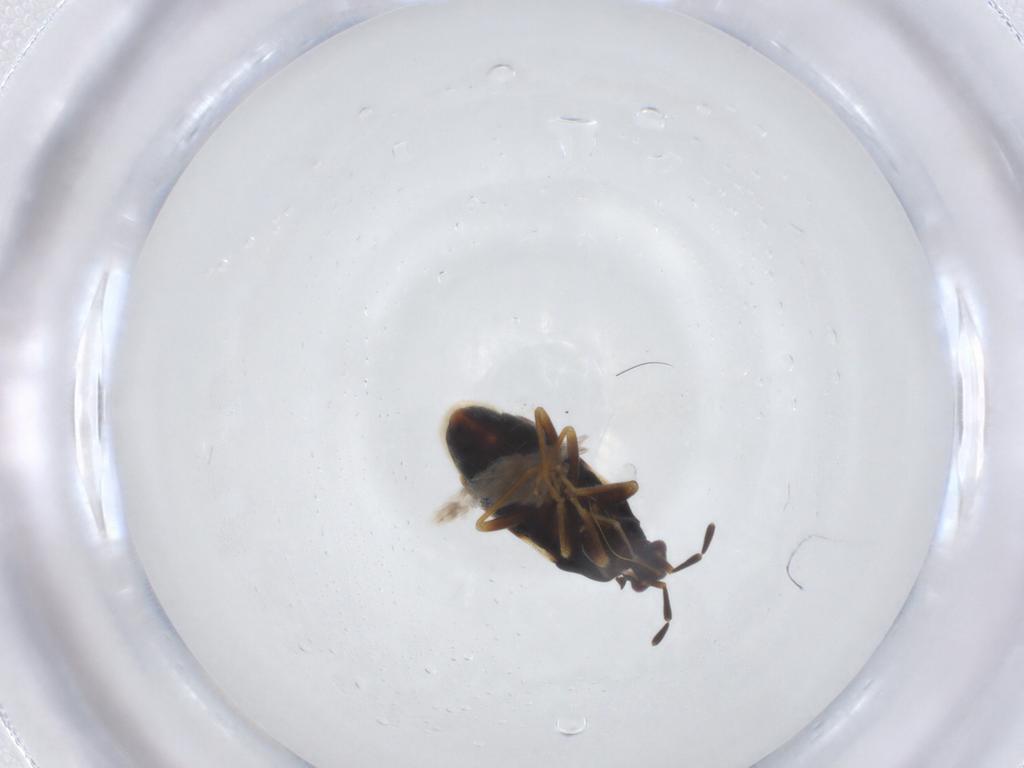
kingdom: Animalia
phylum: Arthropoda
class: Insecta
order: Hemiptera
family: Rhyparochromidae
